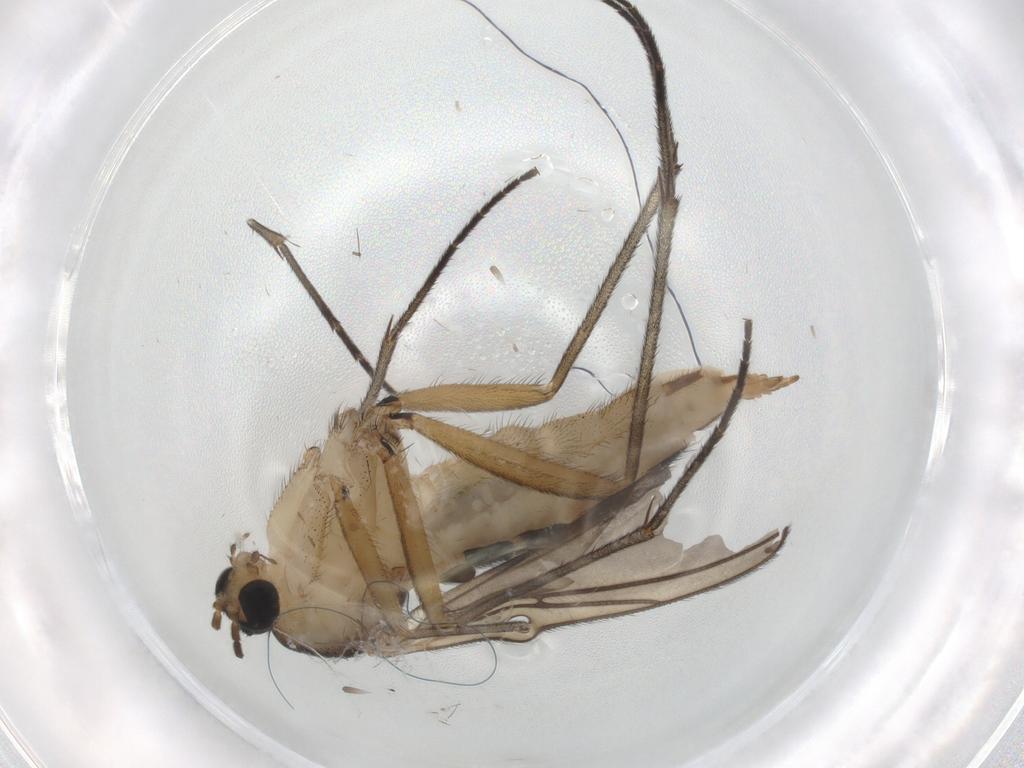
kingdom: Animalia
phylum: Arthropoda
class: Insecta
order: Diptera
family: Sciaridae
